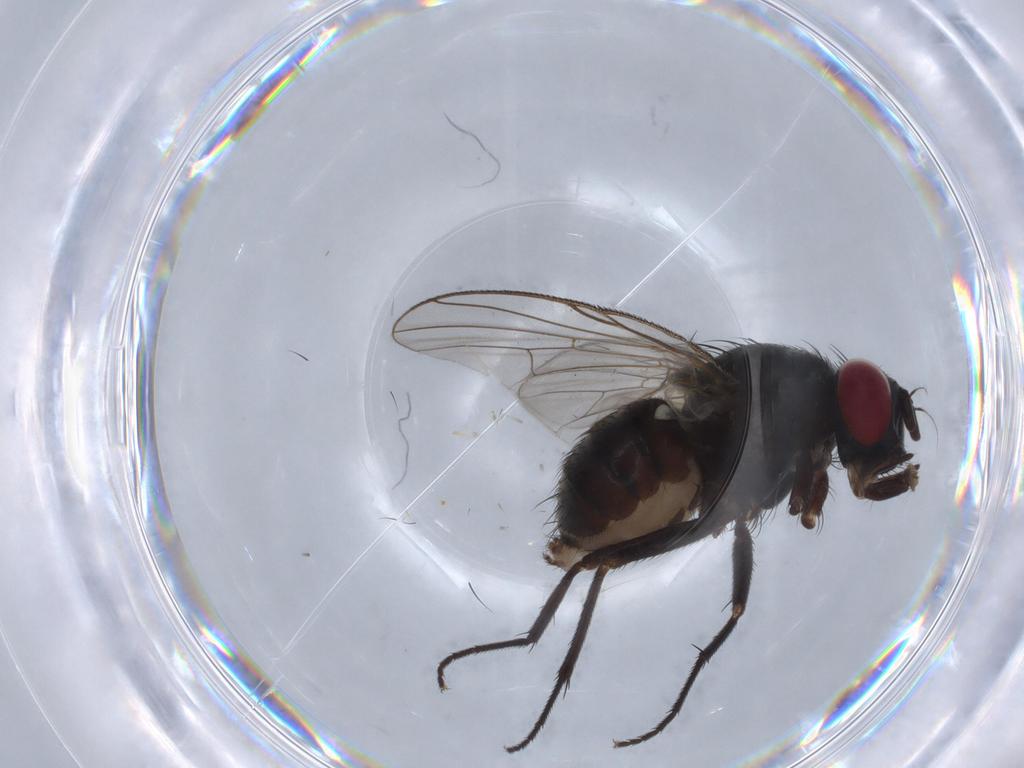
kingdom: Animalia
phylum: Arthropoda
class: Insecta
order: Diptera
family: Muscidae
